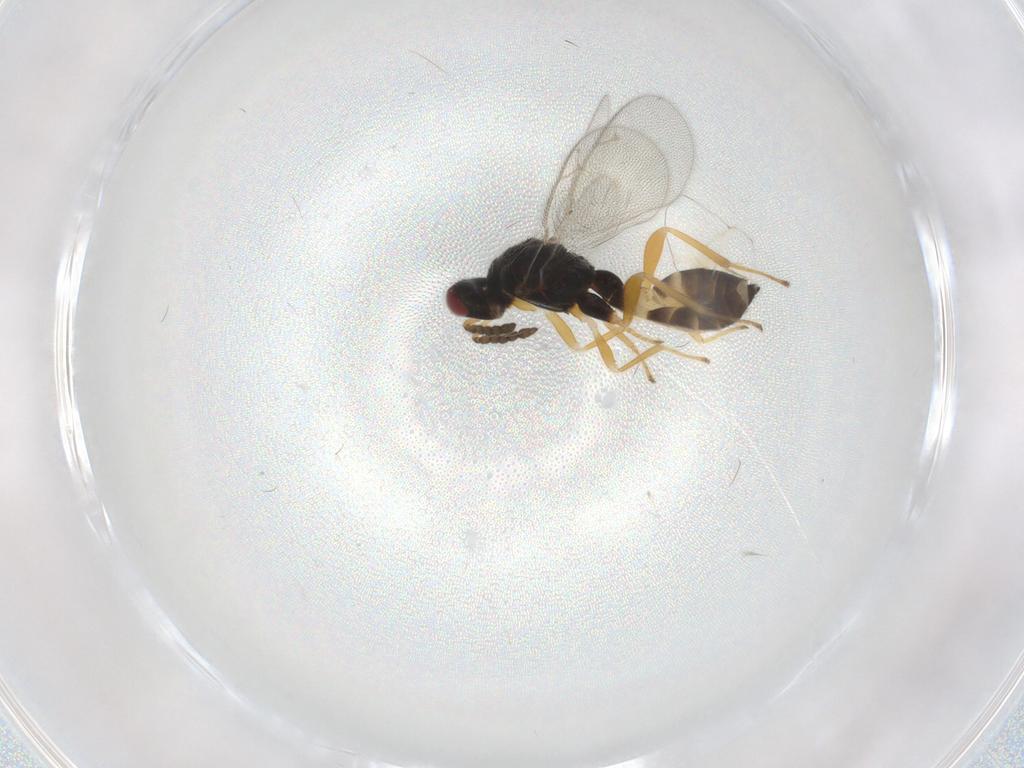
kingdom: Animalia
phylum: Arthropoda
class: Insecta
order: Hymenoptera
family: Eulophidae
